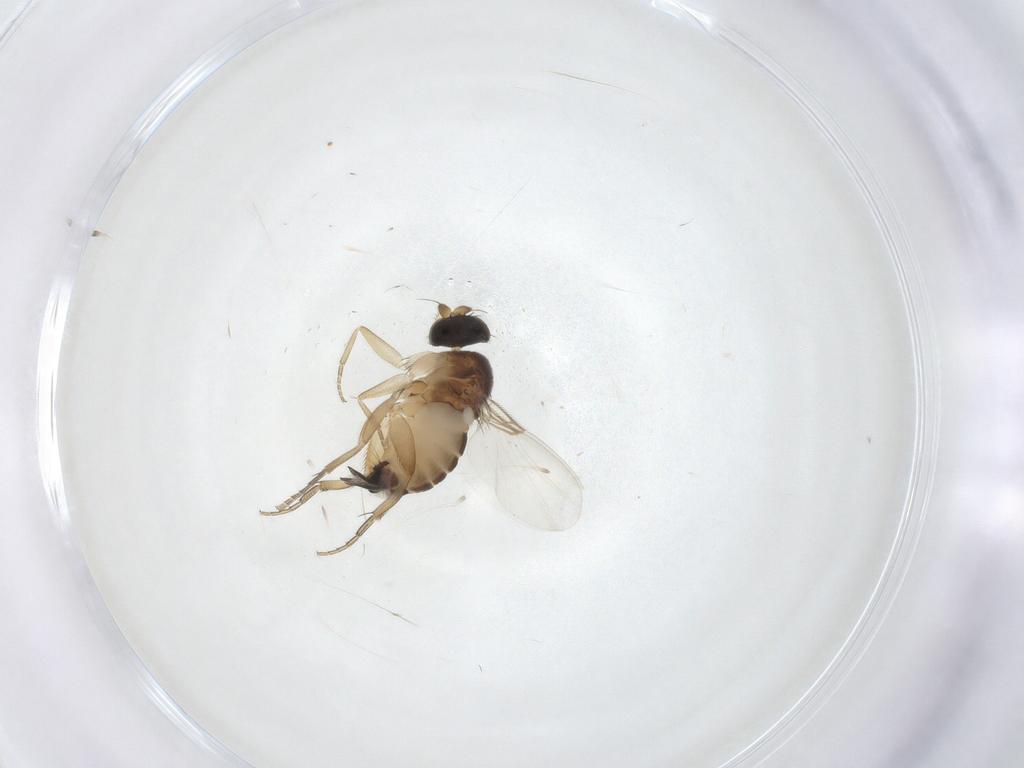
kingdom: Animalia
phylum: Arthropoda
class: Insecta
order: Diptera
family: Phoridae
